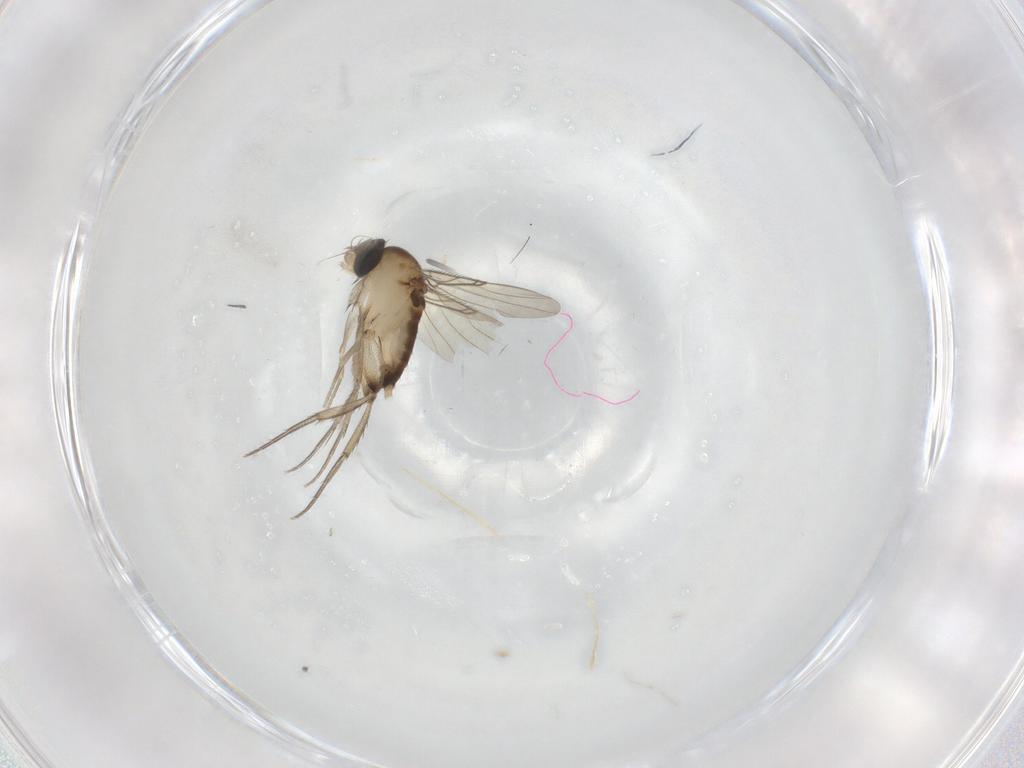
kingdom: Animalia
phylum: Arthropoda
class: Insecta
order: Diptera
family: Phoridae
